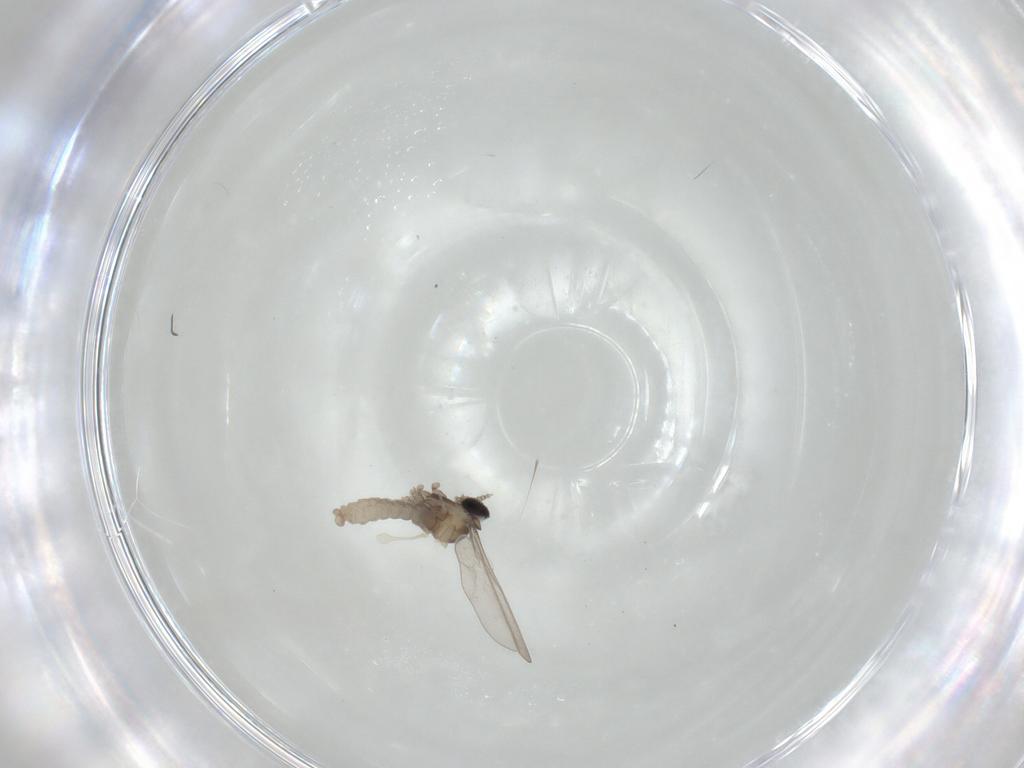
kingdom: Animalia
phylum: Arthropoda
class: Insecta
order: Diptera
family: Cecidomyiidae
